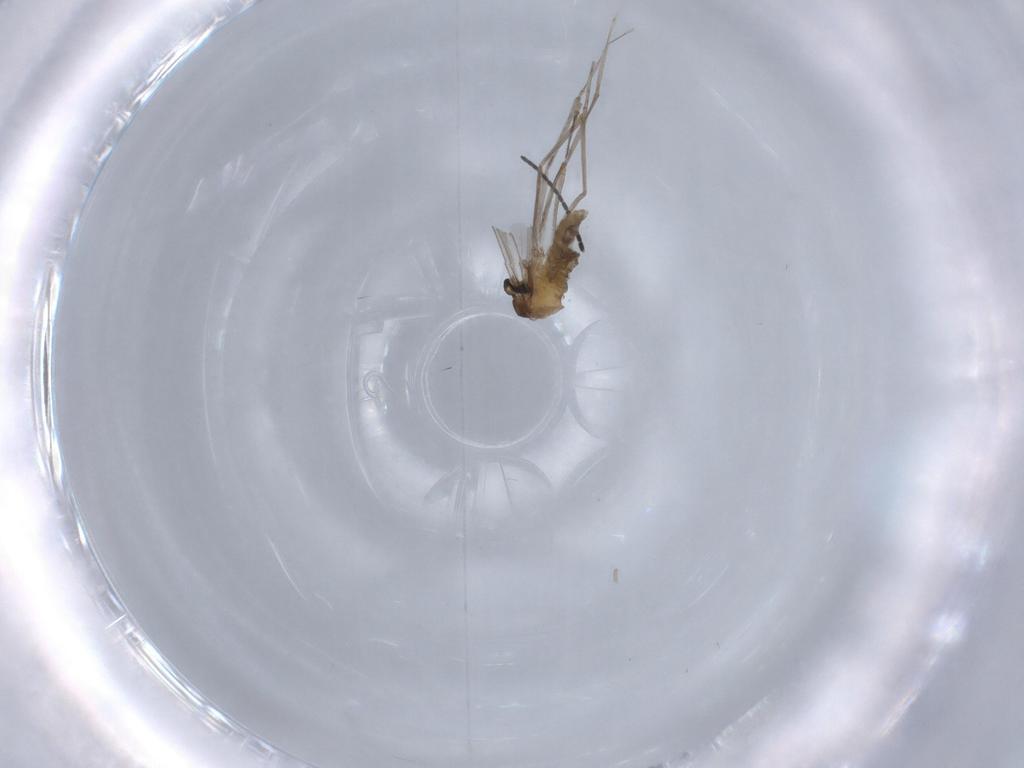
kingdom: Animalia
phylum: Arthropoda
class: Insecta
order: Diptera
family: Cecidomyiidae
